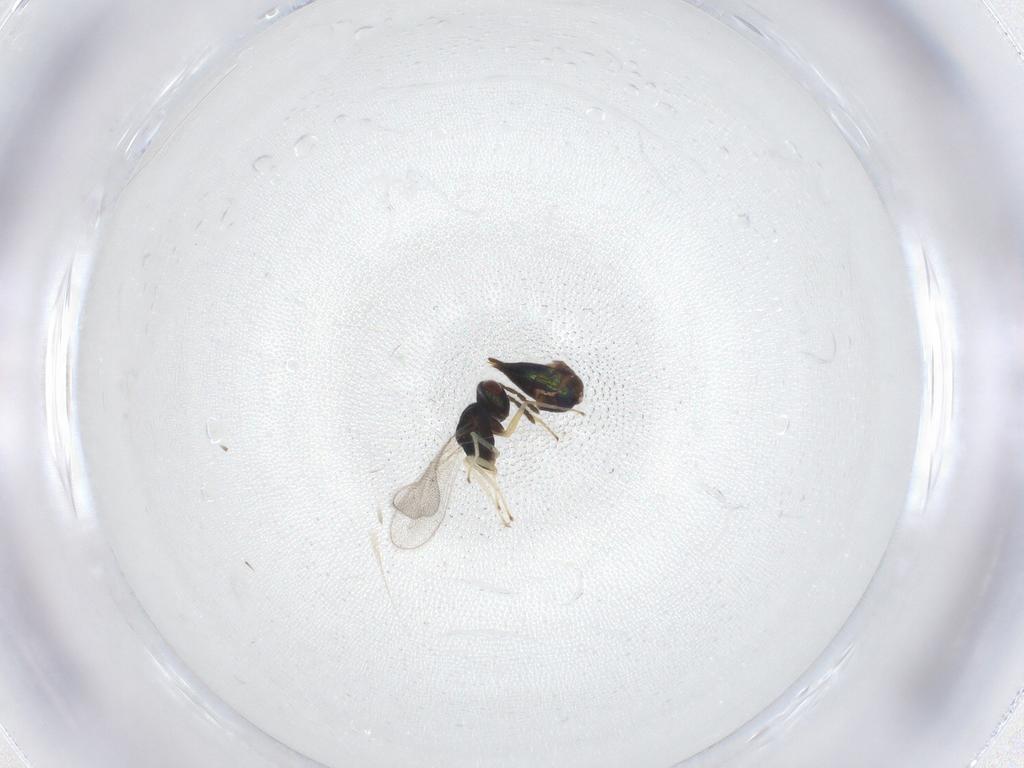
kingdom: Animalia
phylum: Arthropoda
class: Insecta
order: Hymenoptera
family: Eulophidae
